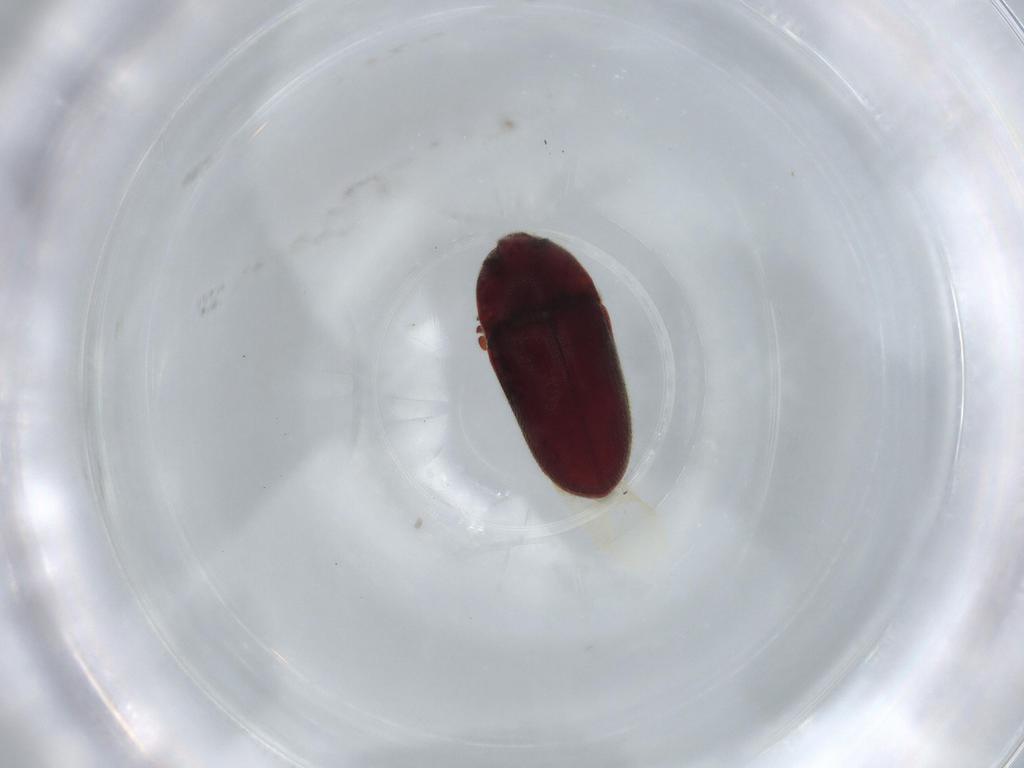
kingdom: Animalia
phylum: Arthropoda
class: Insecta
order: Coleoptera
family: Throscidae
